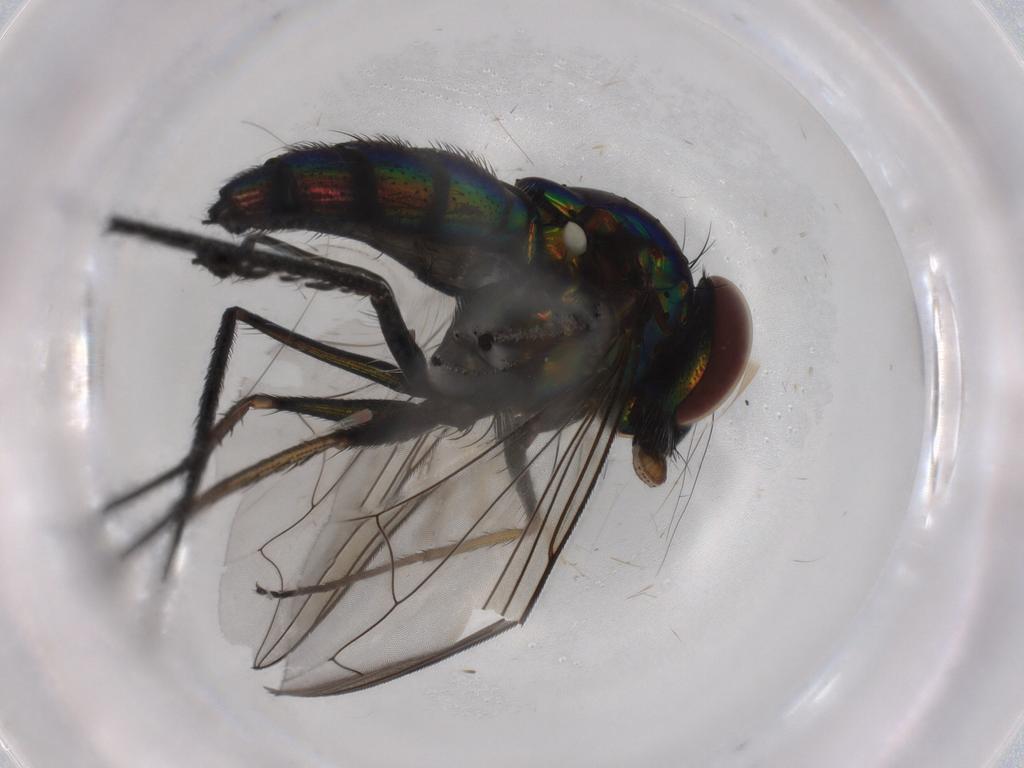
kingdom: Animalia
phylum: Arthropoda
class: Insecta
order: Diptera
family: Dolichopodidae
